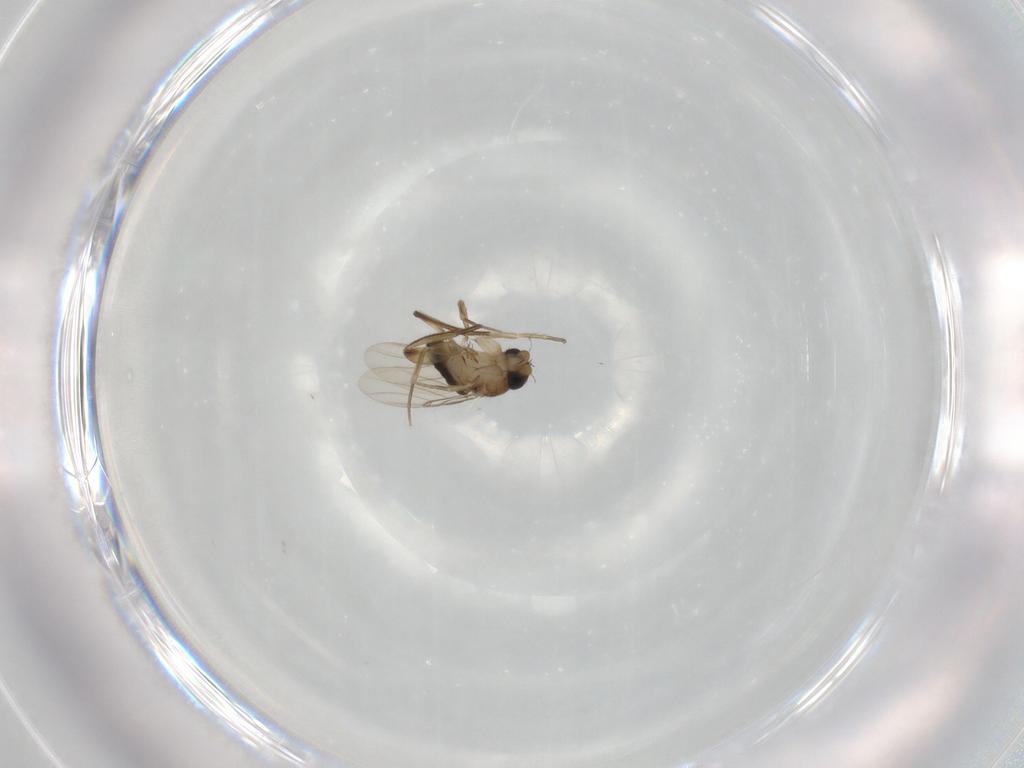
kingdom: Animalia
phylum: Arthropoda
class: Insecta
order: Diptera
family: Phoridae
